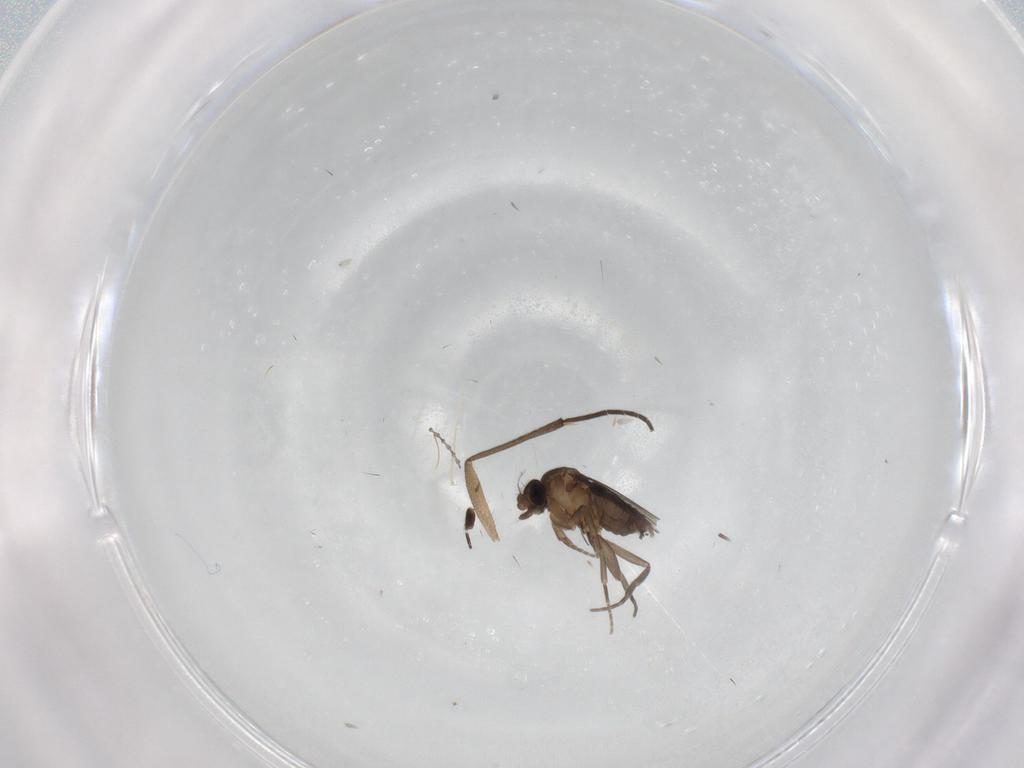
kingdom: Animalia
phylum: Arthropoda
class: Insecta
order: Diptera
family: Ceratopogonidae
